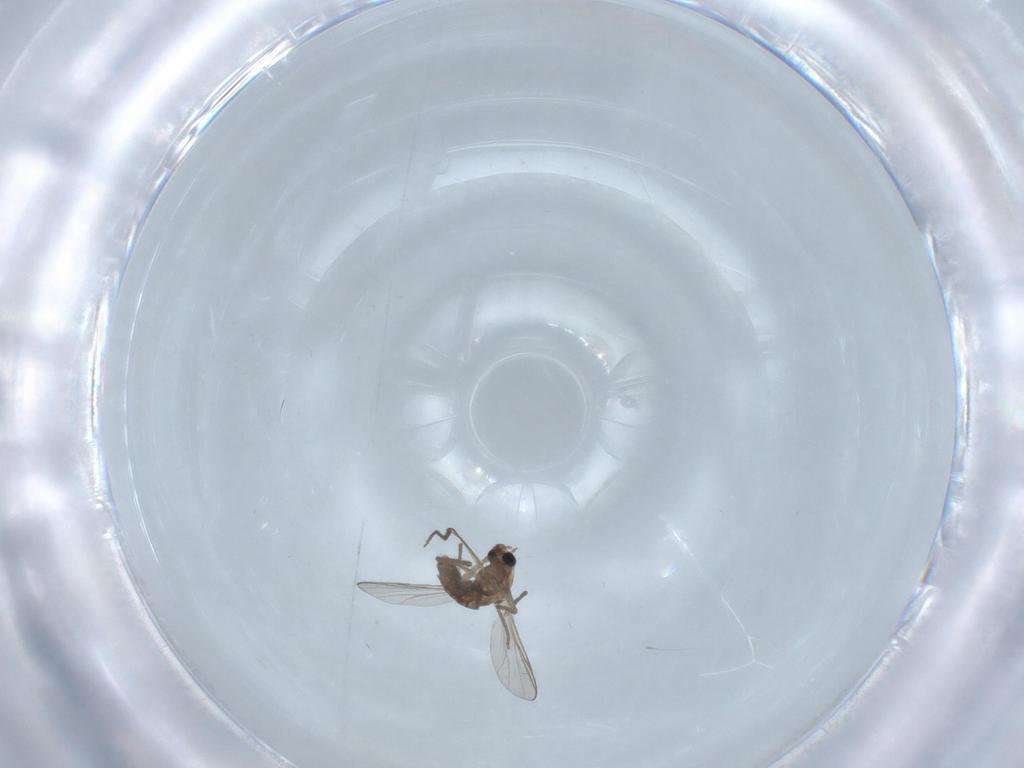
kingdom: Animalia
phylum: Arthropoda
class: Insecta
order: Diptera
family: Chironomidae
